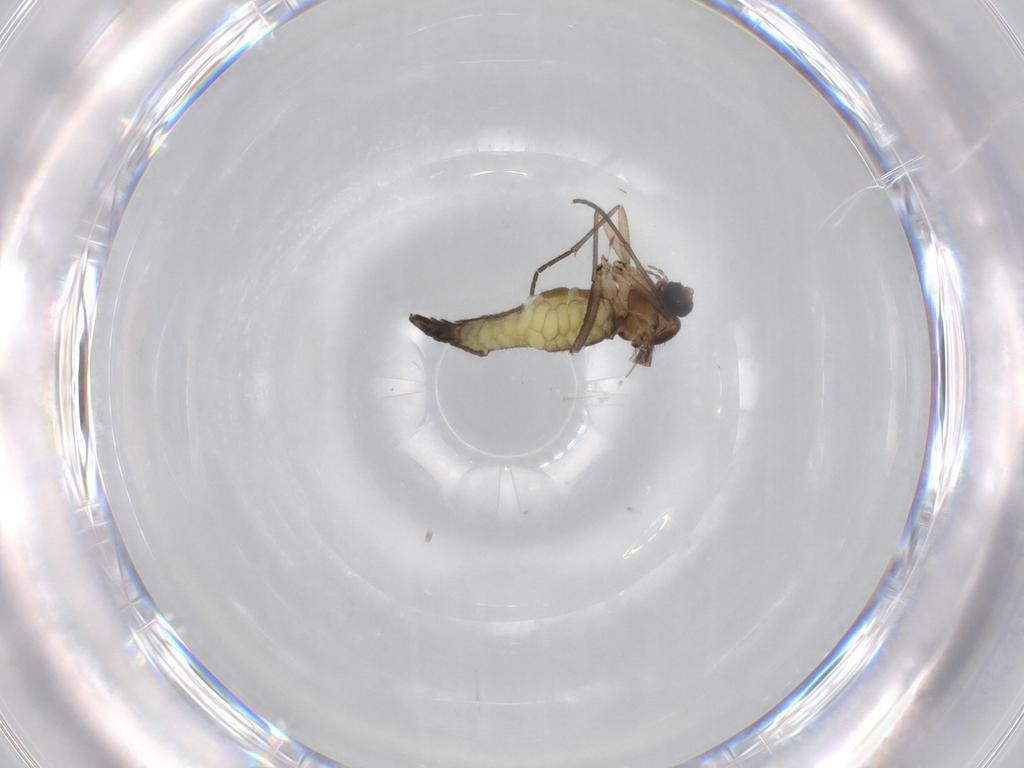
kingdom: Animalia
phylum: Arthropoda
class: Insecta
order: Diptera
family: Sciaridae
